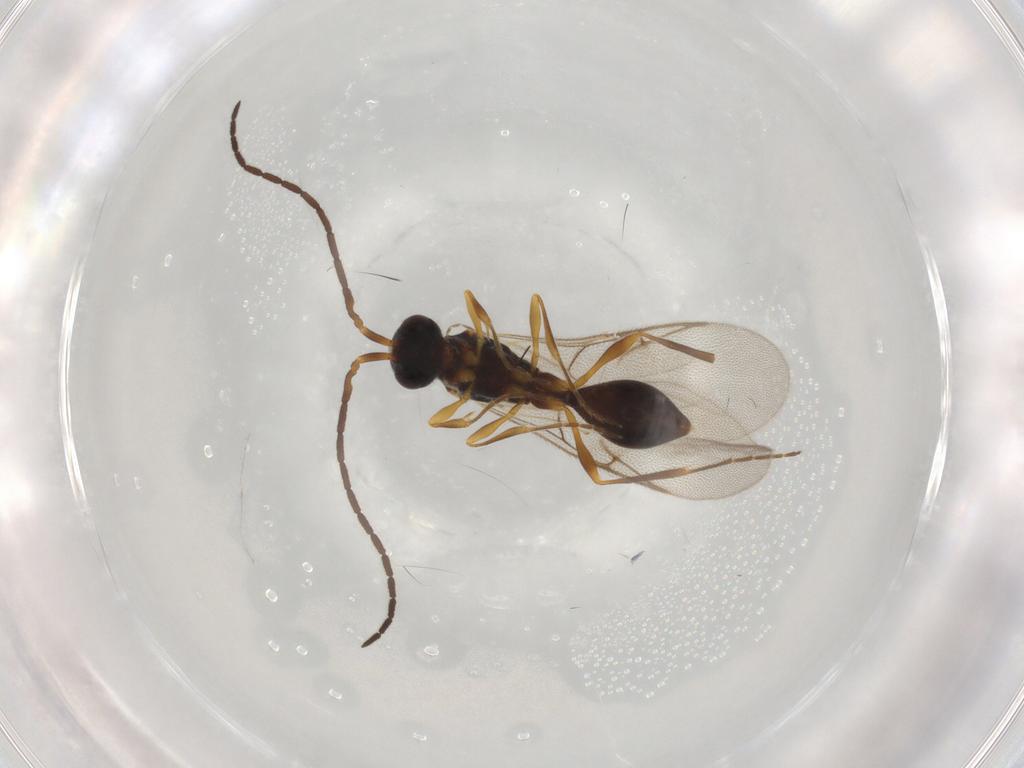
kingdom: Animalia
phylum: Arthropoda
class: Insecta
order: Hymenoptera
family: Diapriidae
